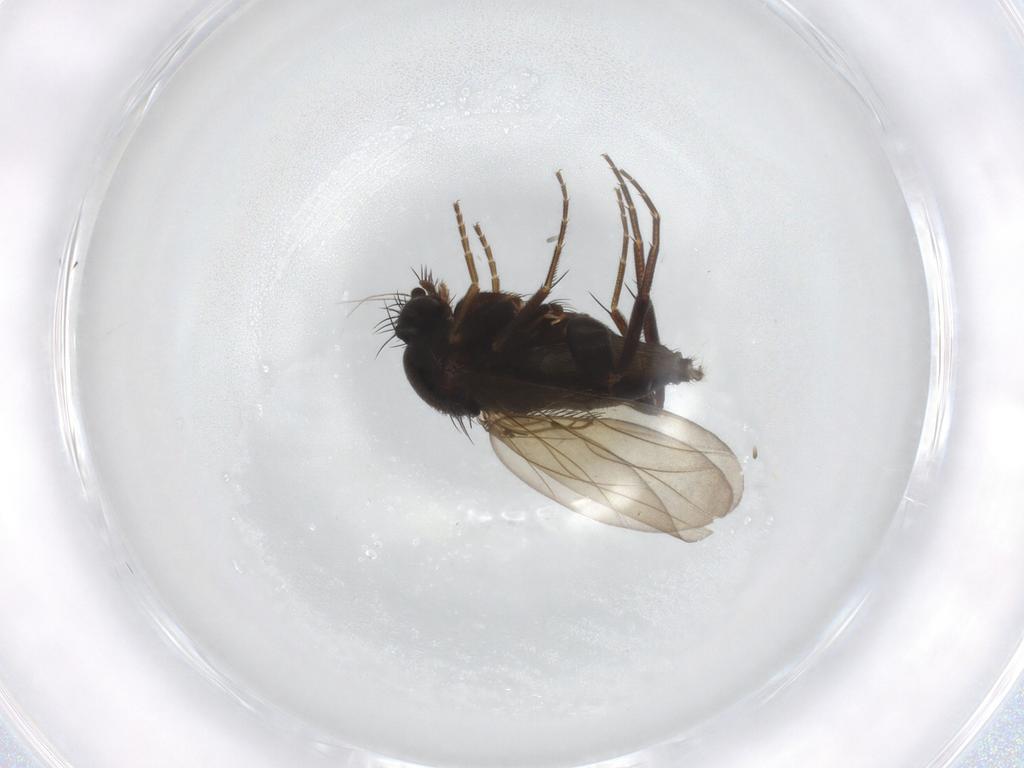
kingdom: Animalia
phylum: Arthropoda
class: Insecta
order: Diptera
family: Phoridae
